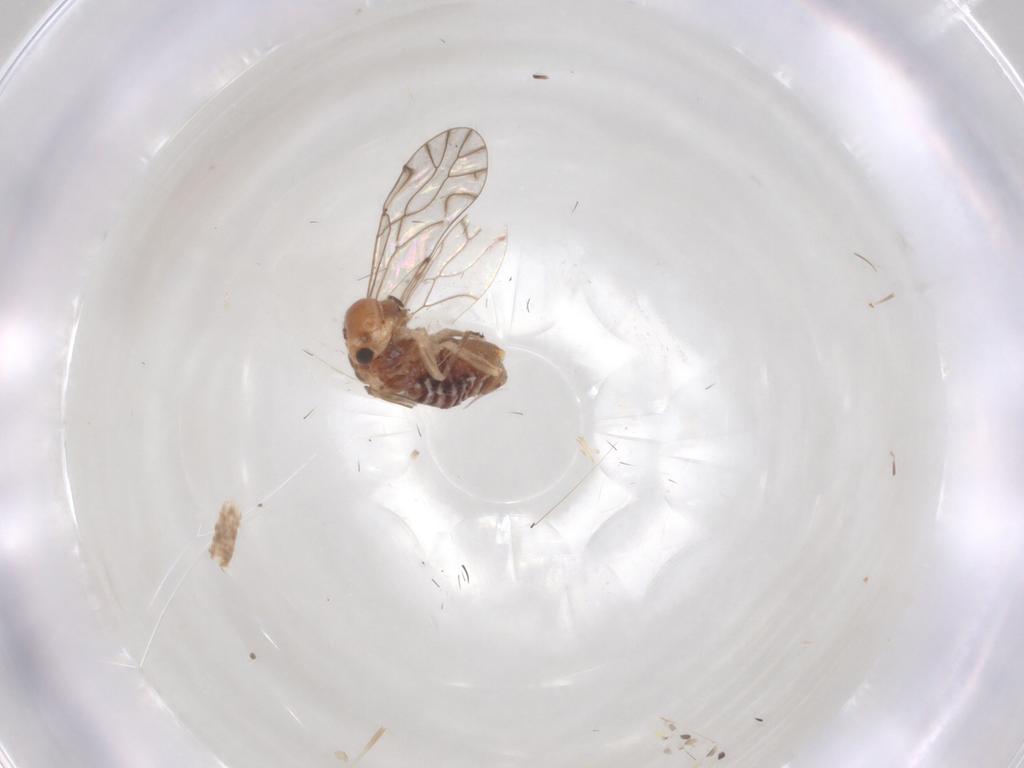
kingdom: Animalia
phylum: Arthropoda
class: Insecta
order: Psocodea
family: Lachesillidae
